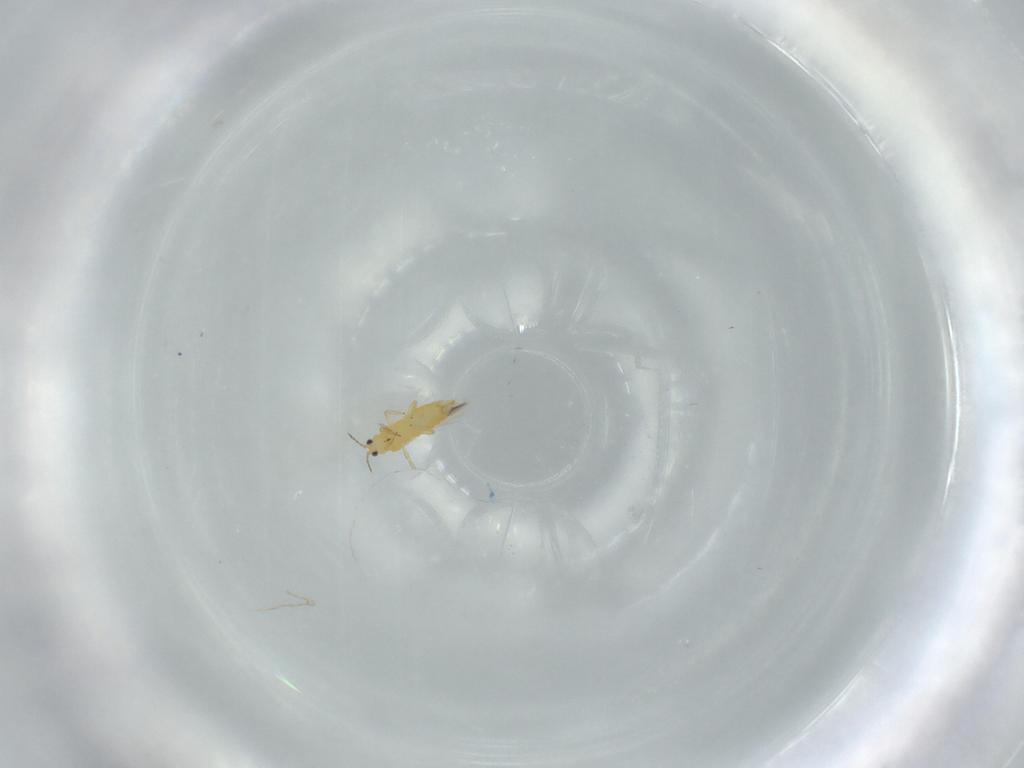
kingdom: Animalia
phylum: Arthropoda
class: Insecta
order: Thysanoptera
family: Thripidae
